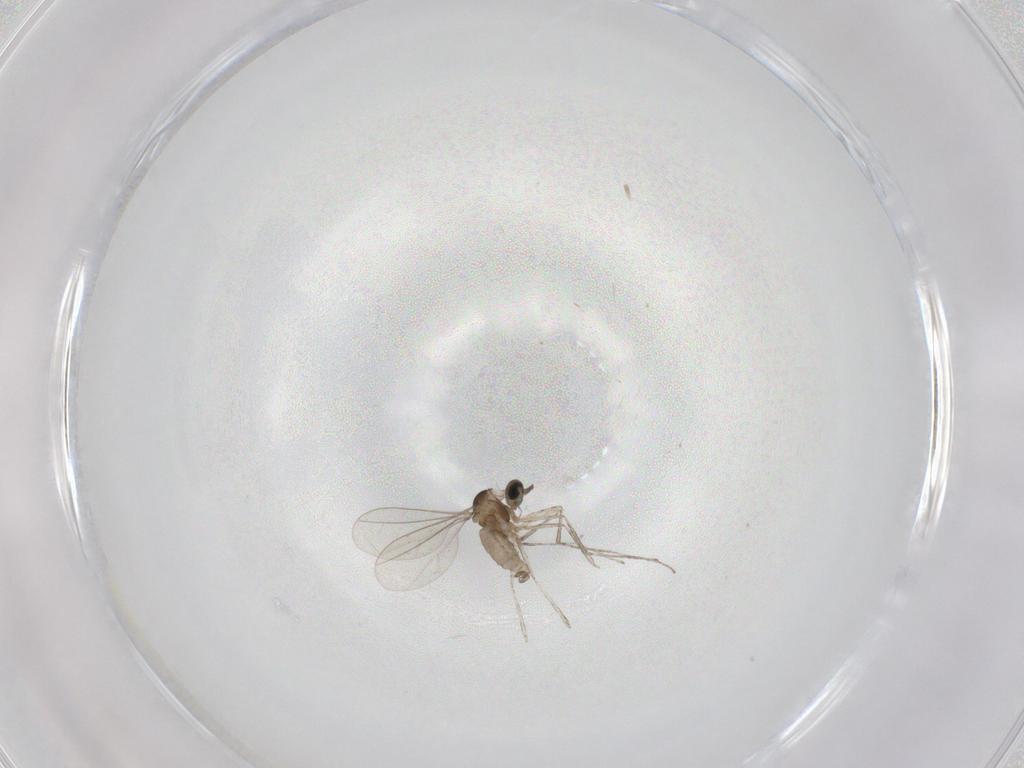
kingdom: Animalia
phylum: Arthropoda
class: Insecta
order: Diptera
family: Cecidomyiidae
